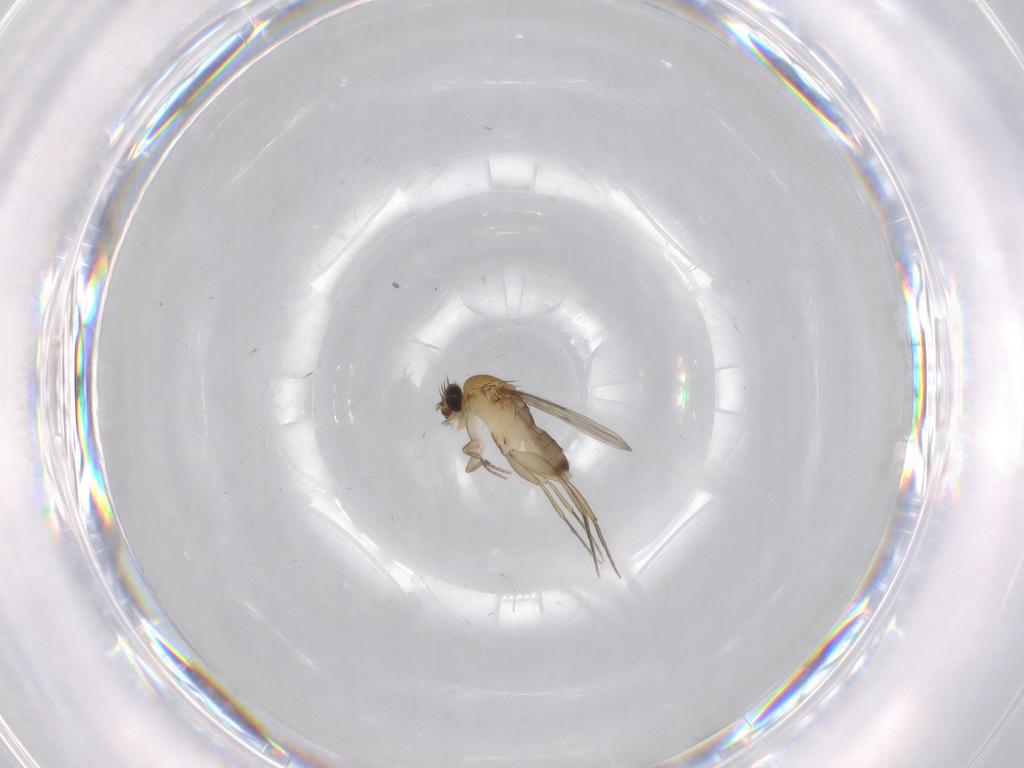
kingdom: Animalia
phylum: Arthropoda
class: Insecta
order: Diptera
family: Phoridae
